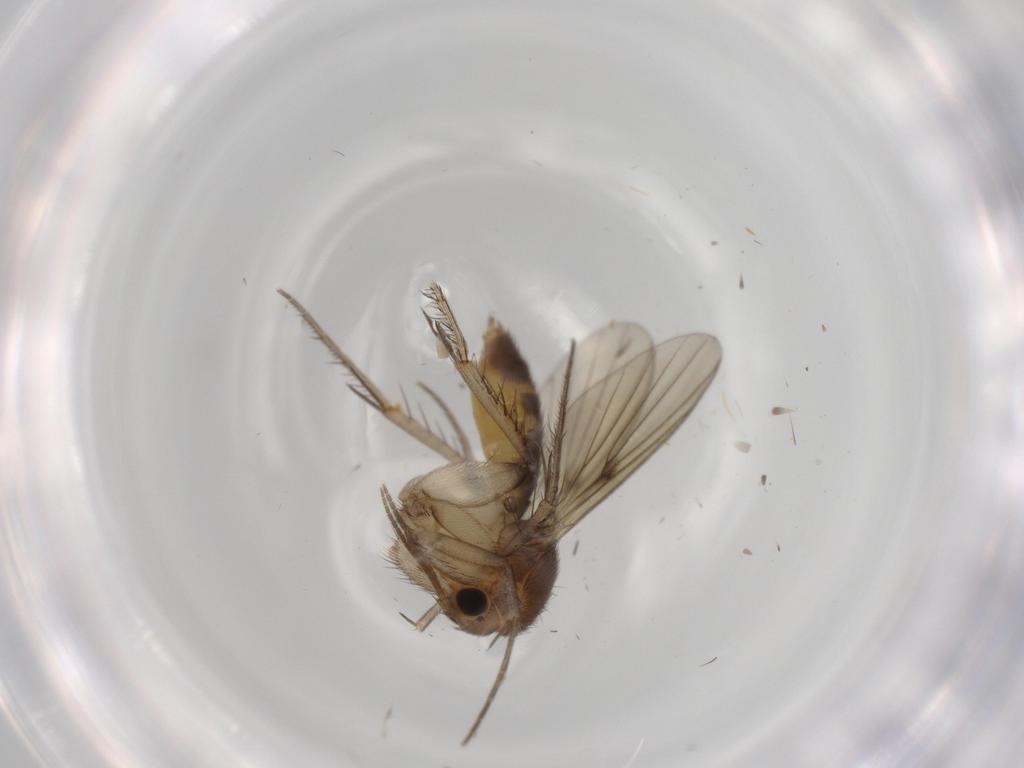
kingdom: Animalia
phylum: Arthropoda
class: Insecta
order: Diptera
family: Mycetophilidae
